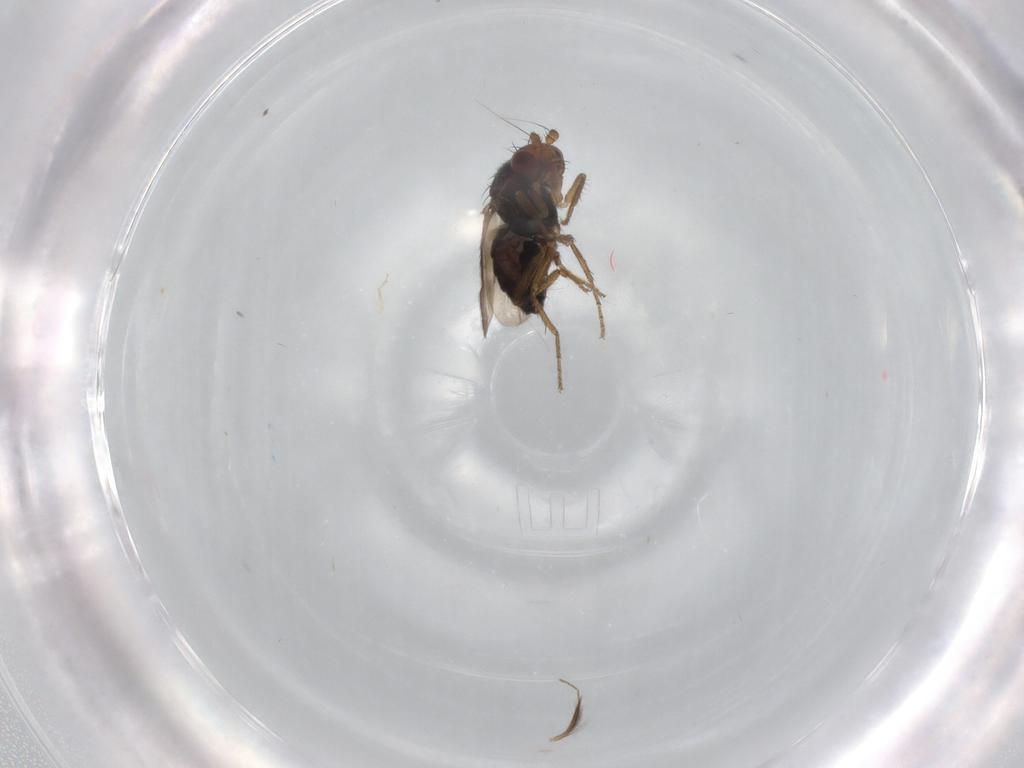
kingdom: Animalia
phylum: Arthropoda
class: Insecta
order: Diptera
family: Sphaeroceridae
